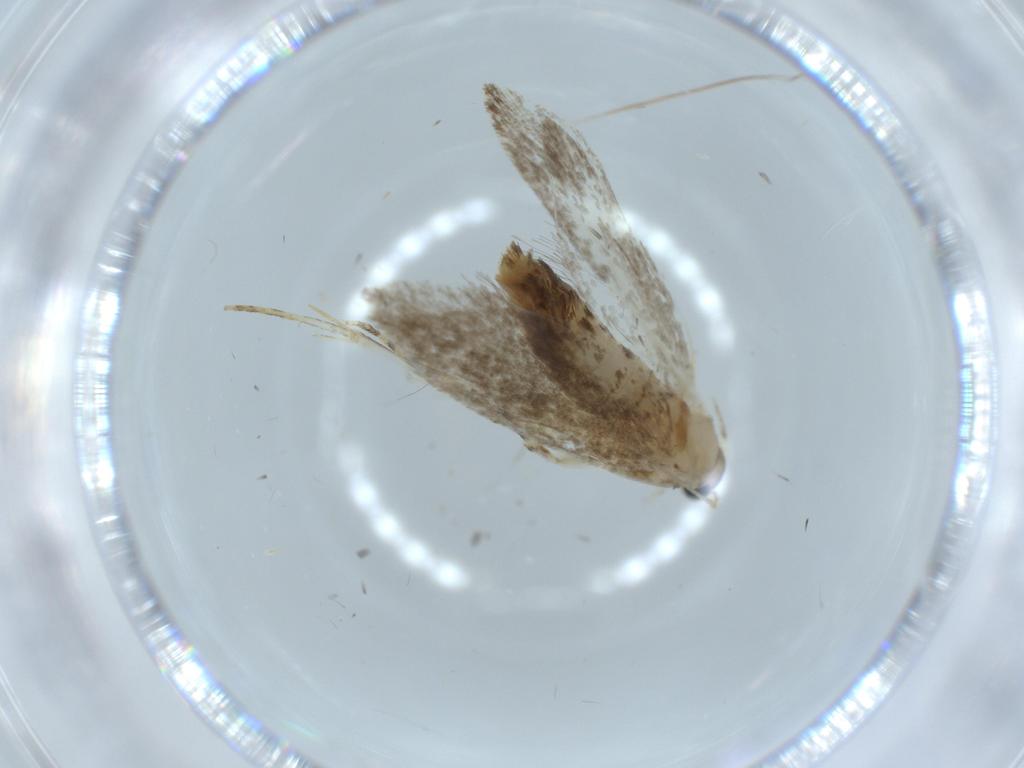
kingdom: Animalia
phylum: Arthropoda
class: Insecta
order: Lepidoptera
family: Tineidae
